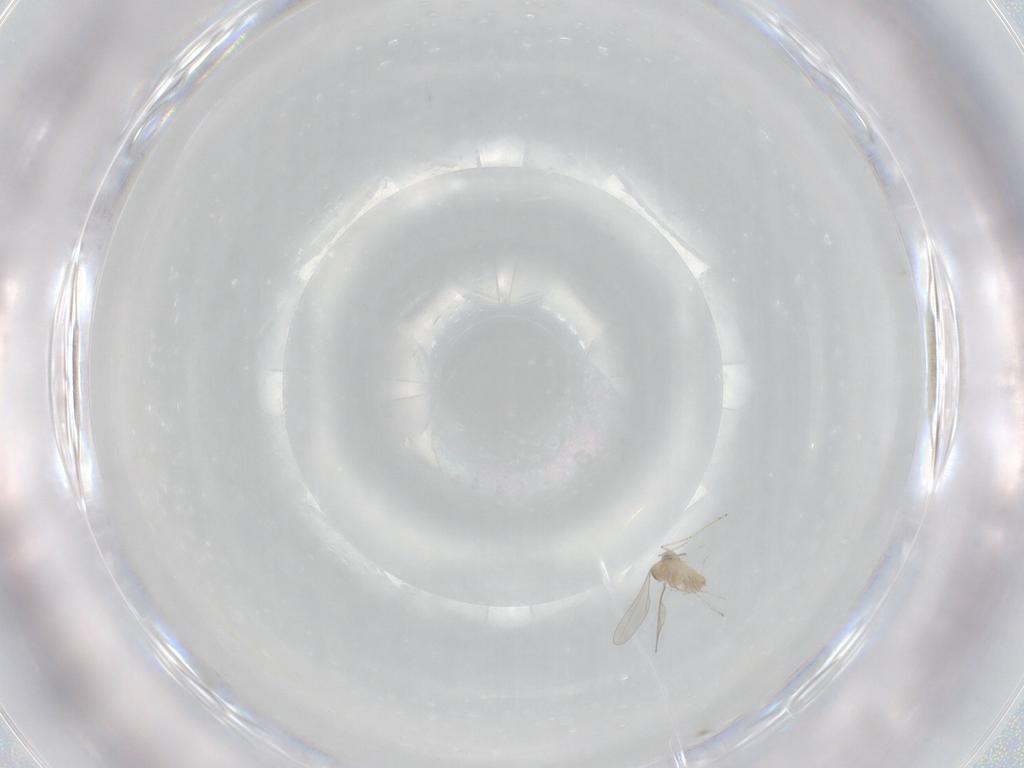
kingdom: Animalia
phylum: Arthropoda
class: Insecta
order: Diptera
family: Cecidomyiidae
